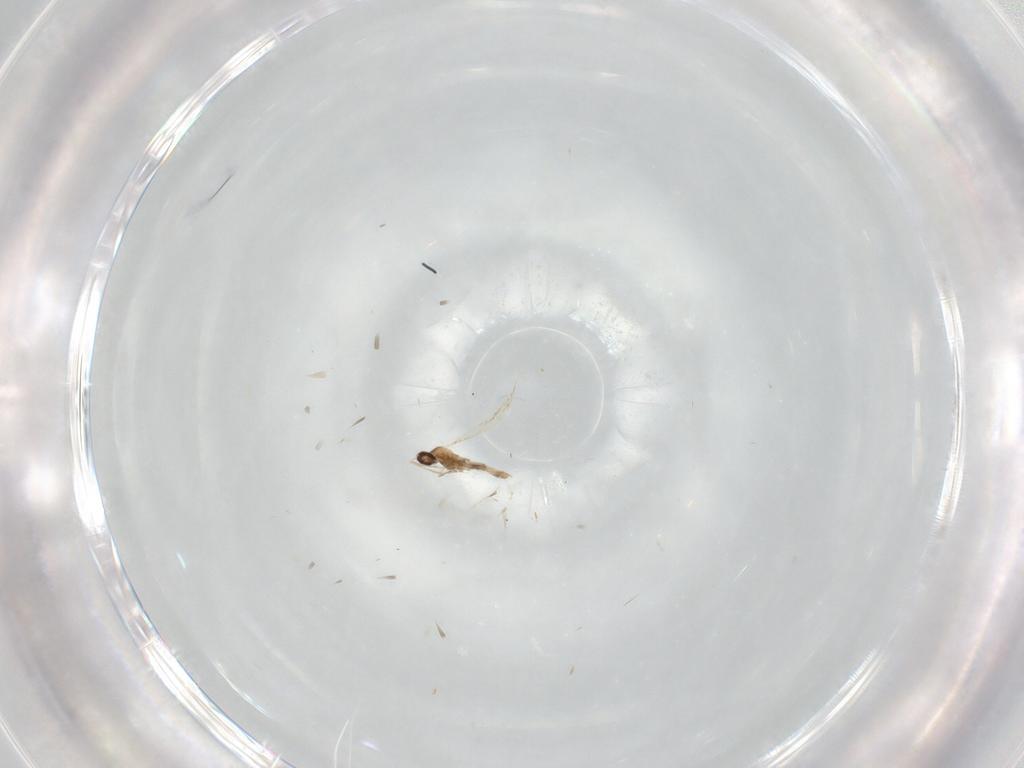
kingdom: Animalia
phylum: Arthropoda
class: Insecta
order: Diptera
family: Cecidomyiidae
